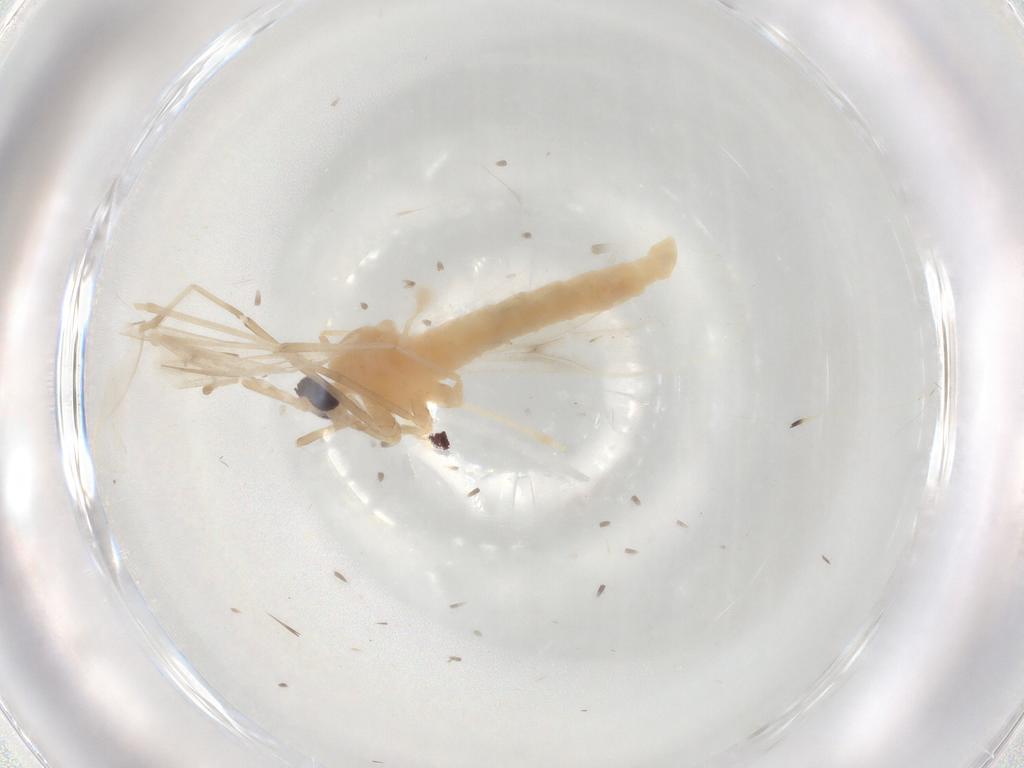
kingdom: Animalia
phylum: Arthropoda
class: Insecta
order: Diptera
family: Cecidomyiidae
